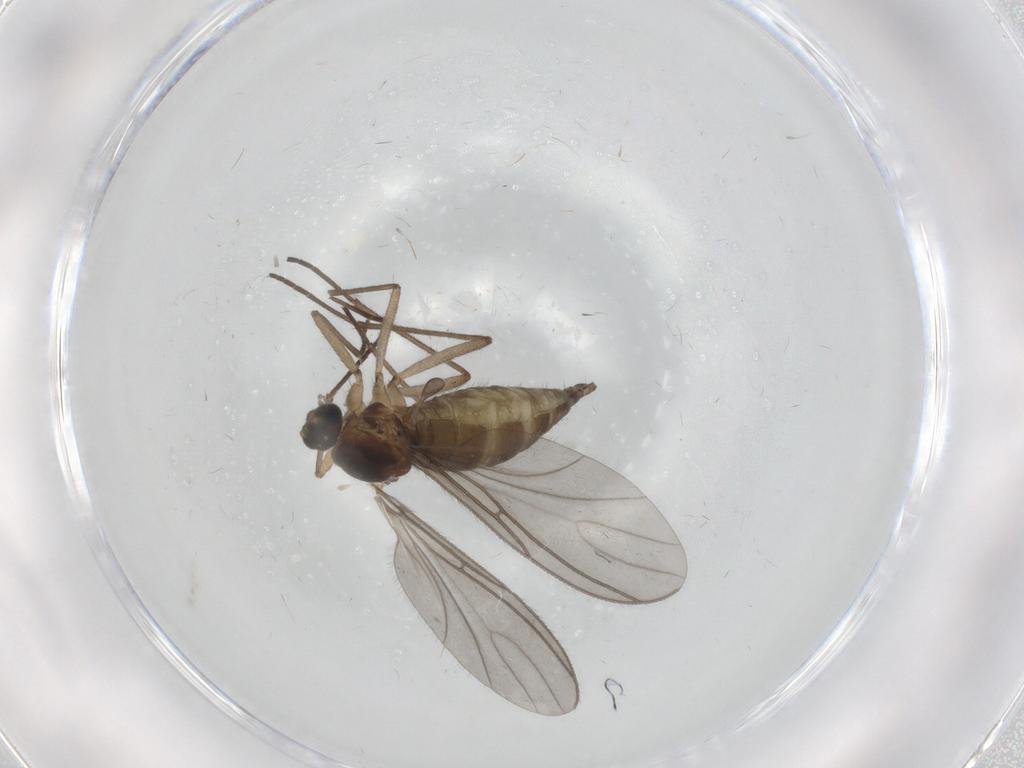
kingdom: Animalia
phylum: Arthropoda
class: Insecta
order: Diptera
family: Sciaridae
